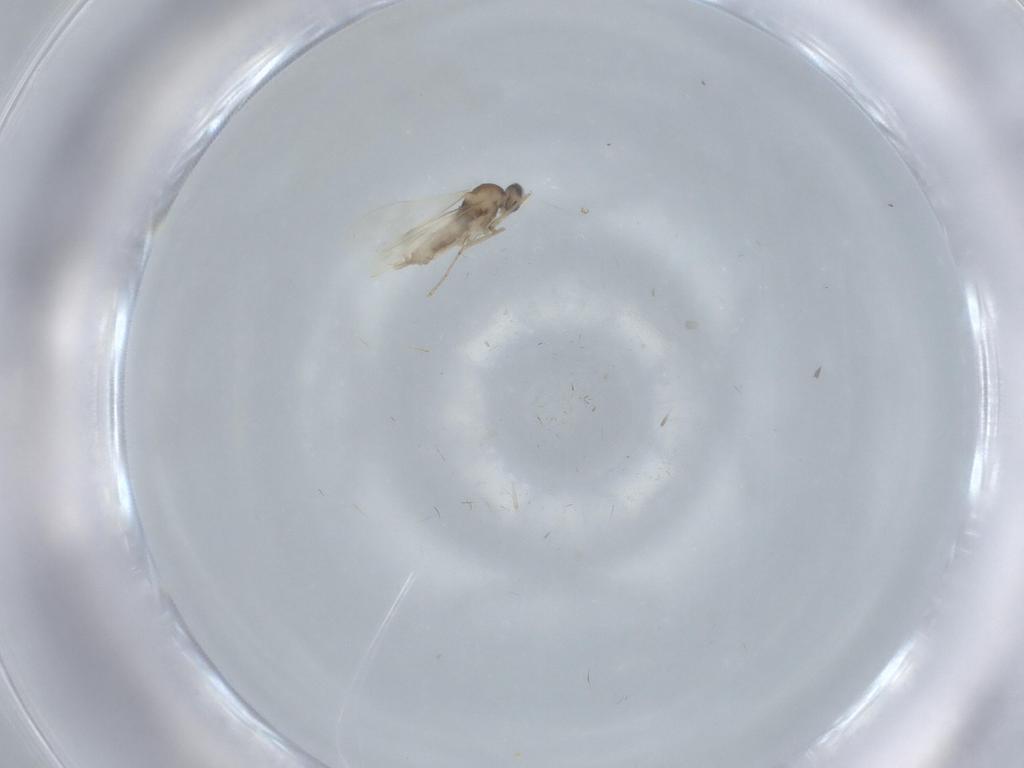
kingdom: Animalia
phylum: Arthropoda
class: Insecta
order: Diptera
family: Cecidomyiidae
